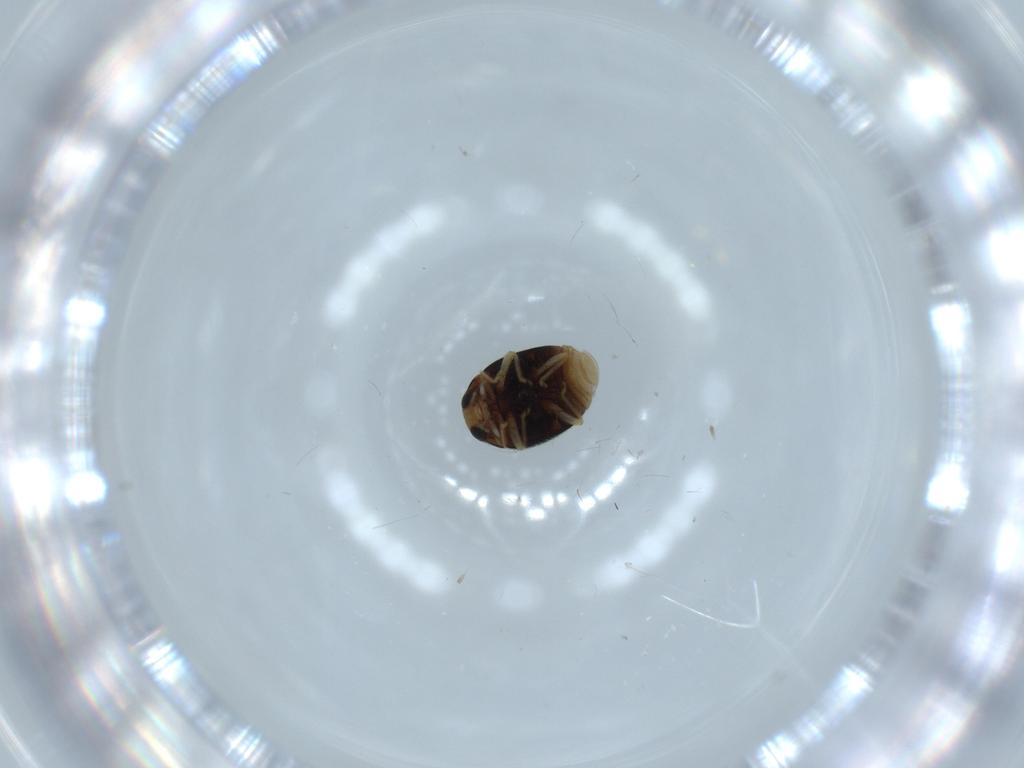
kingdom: Animalia
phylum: Arthropoda
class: Insecta
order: Coleoptera
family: Coccinellidae
